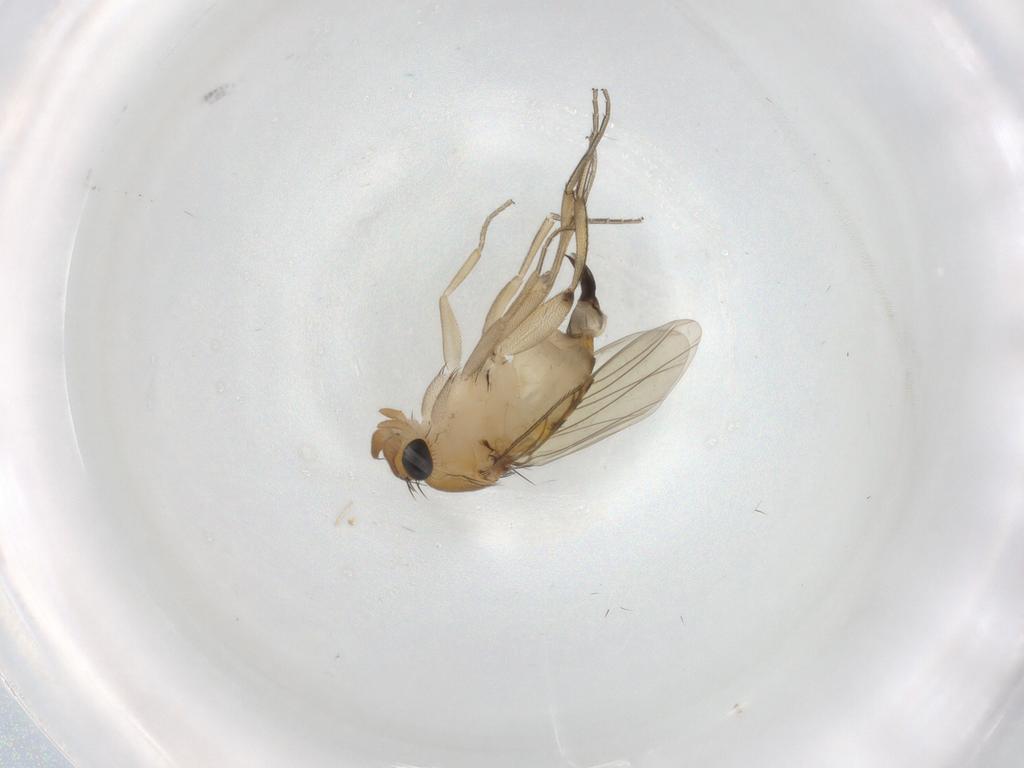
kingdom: Animalia
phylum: Arthropoda
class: Insecta
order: Diptera
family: Phoridae
